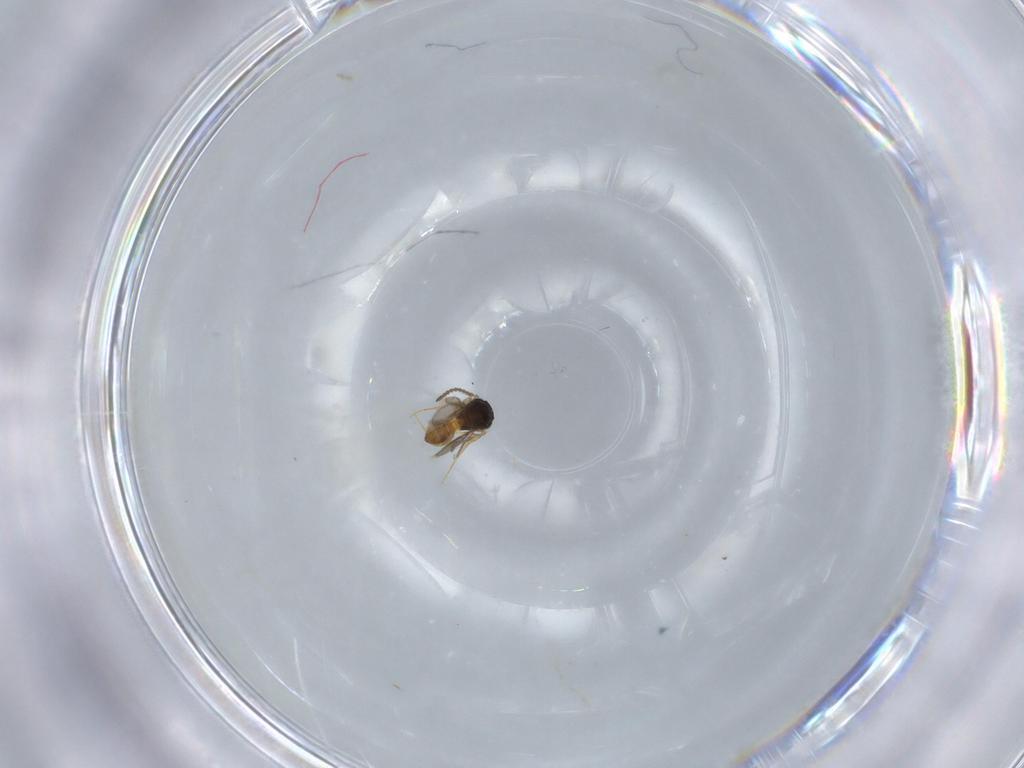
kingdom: Animalia
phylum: Arthropoda
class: Insecta
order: Hymenoptera
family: Scelionidae
